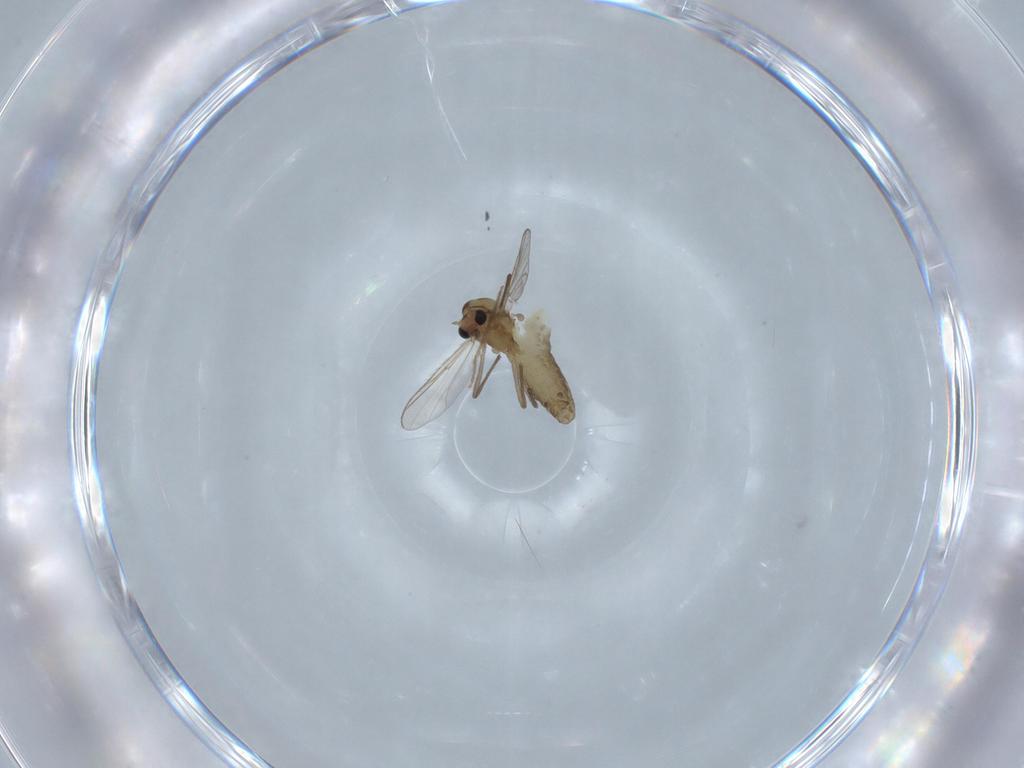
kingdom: Animalia
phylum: Arthropoda
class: Insecta
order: Diptera
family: Chironomidae
